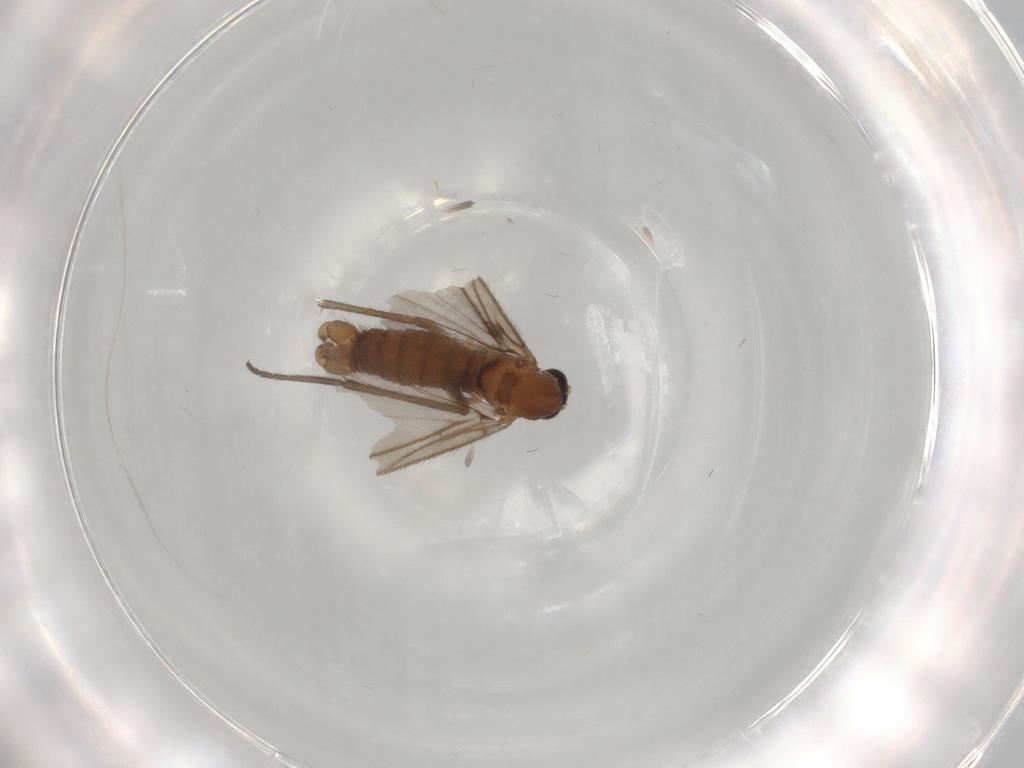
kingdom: Animalia
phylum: Arthropoda
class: Insecta
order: Diptera
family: Sciaridae
